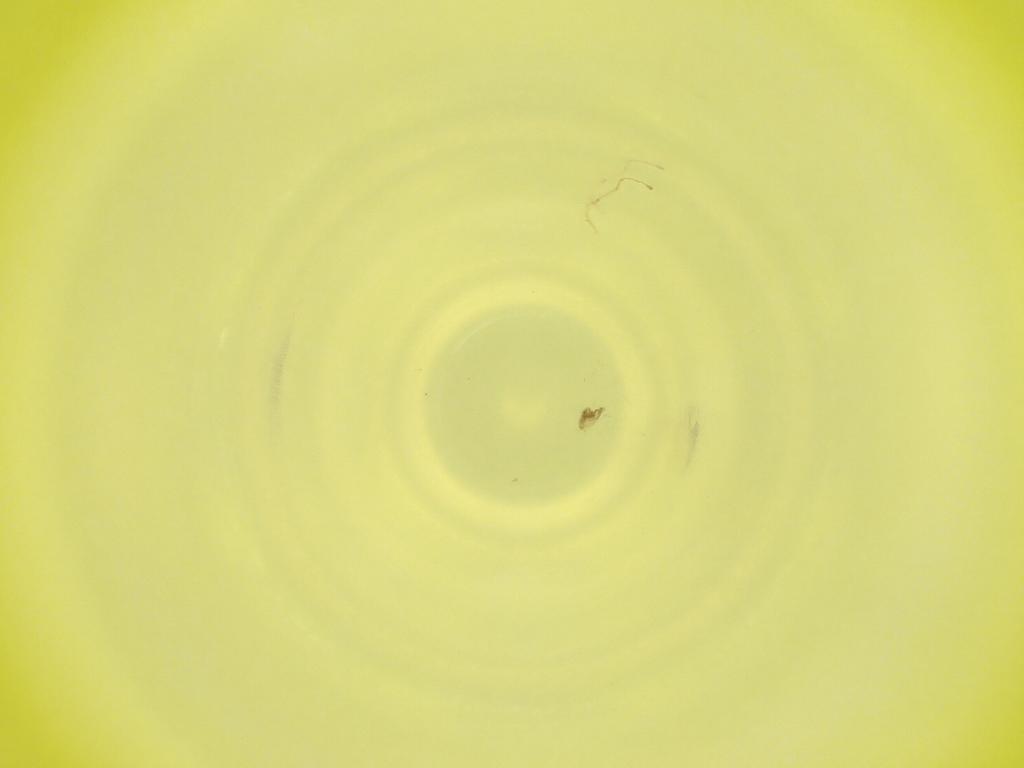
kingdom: Animalia
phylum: Arthropoda
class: Insecta
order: Diptera
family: Cecidomyiidae
